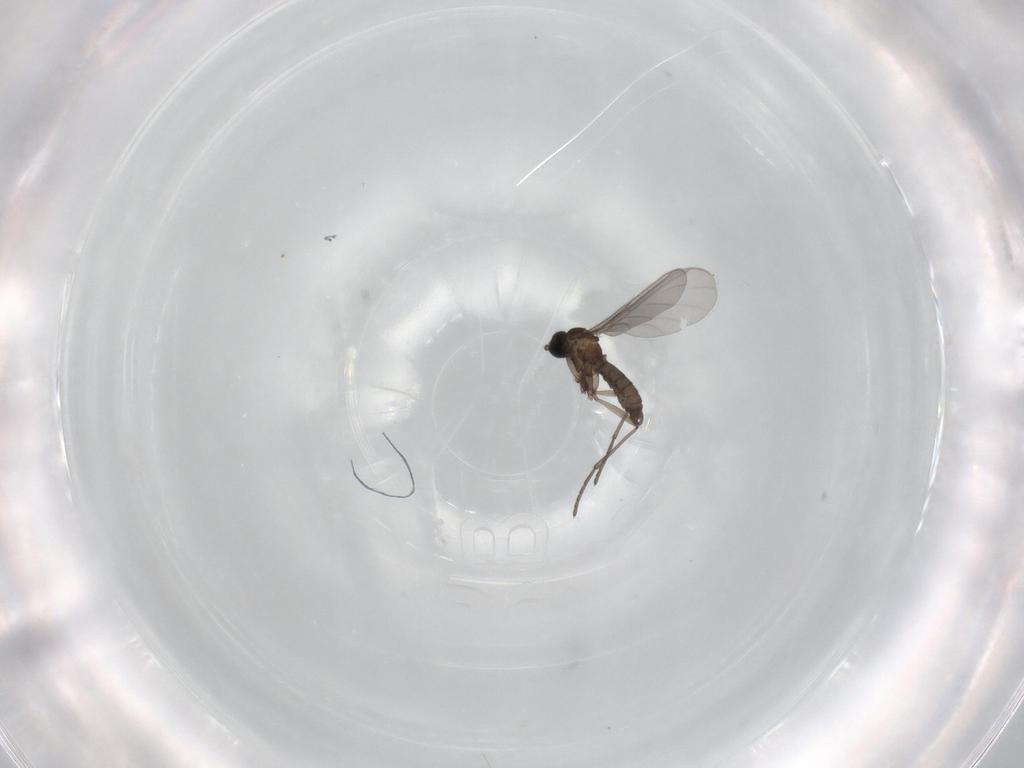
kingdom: Animalia
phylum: Arthropoda
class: Insecta
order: Diptera
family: Sciaridae
